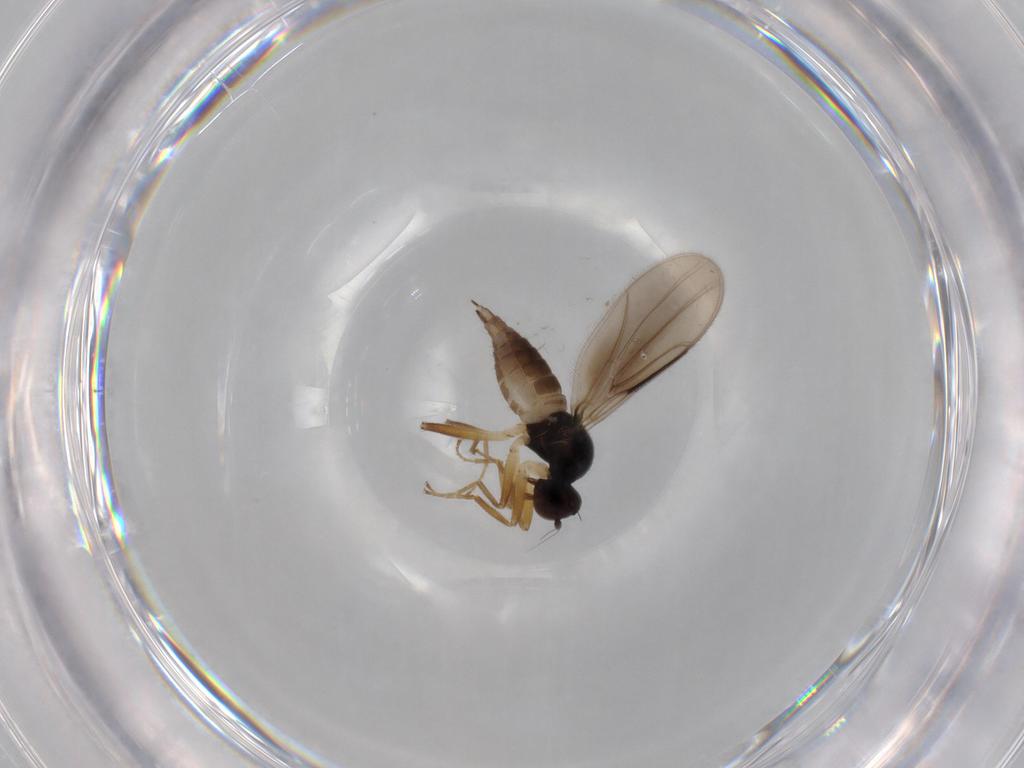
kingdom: Animalia
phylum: Arthropoda
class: Insecta
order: Diptera
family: Hybotidae
